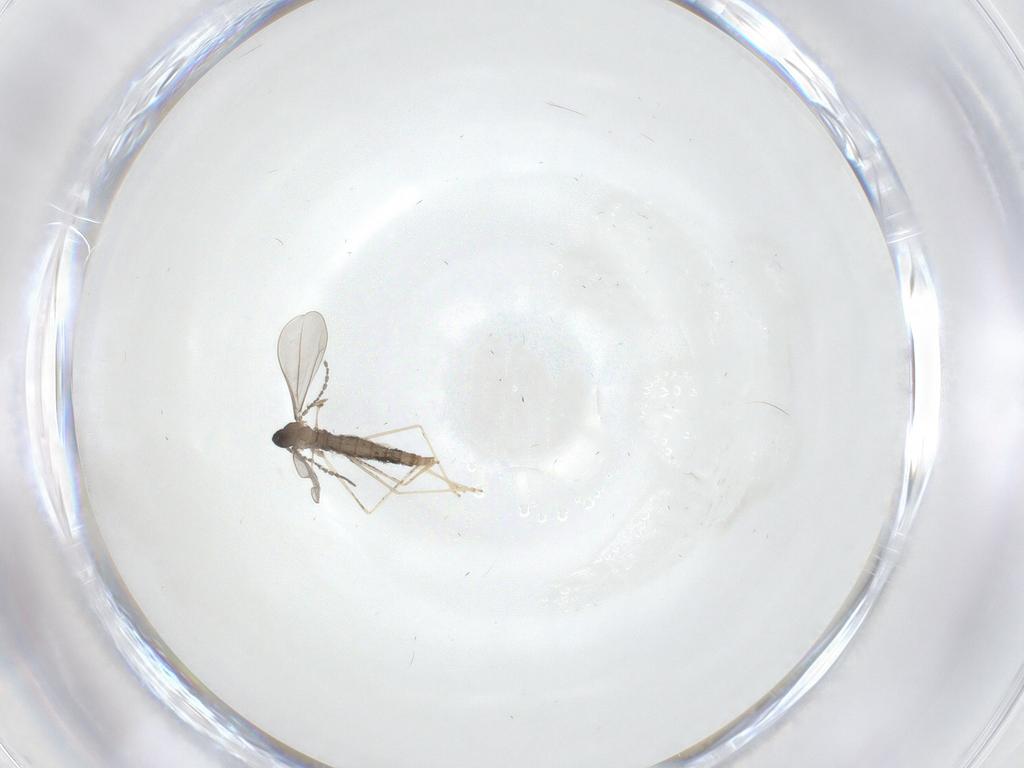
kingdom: Animalia
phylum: Arthropoda
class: Insecta
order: Diptera
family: Cecidomyiidae
